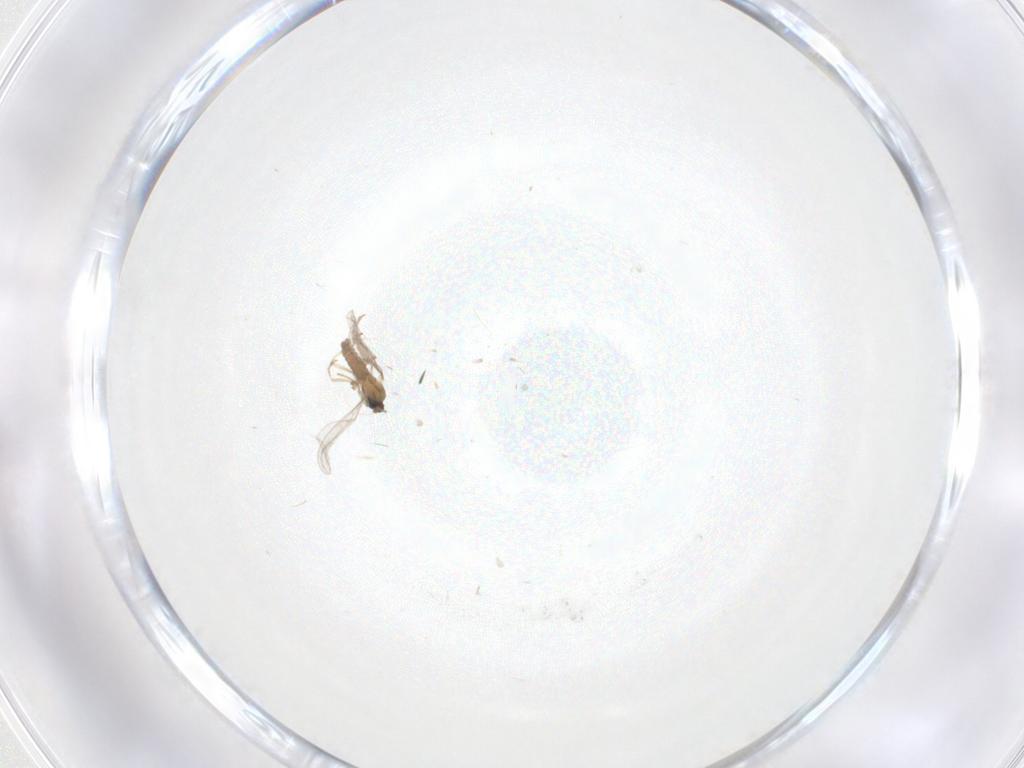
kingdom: Animalia
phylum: Arthropoda
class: Insecta
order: Diptera
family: Cecidomyiidae
